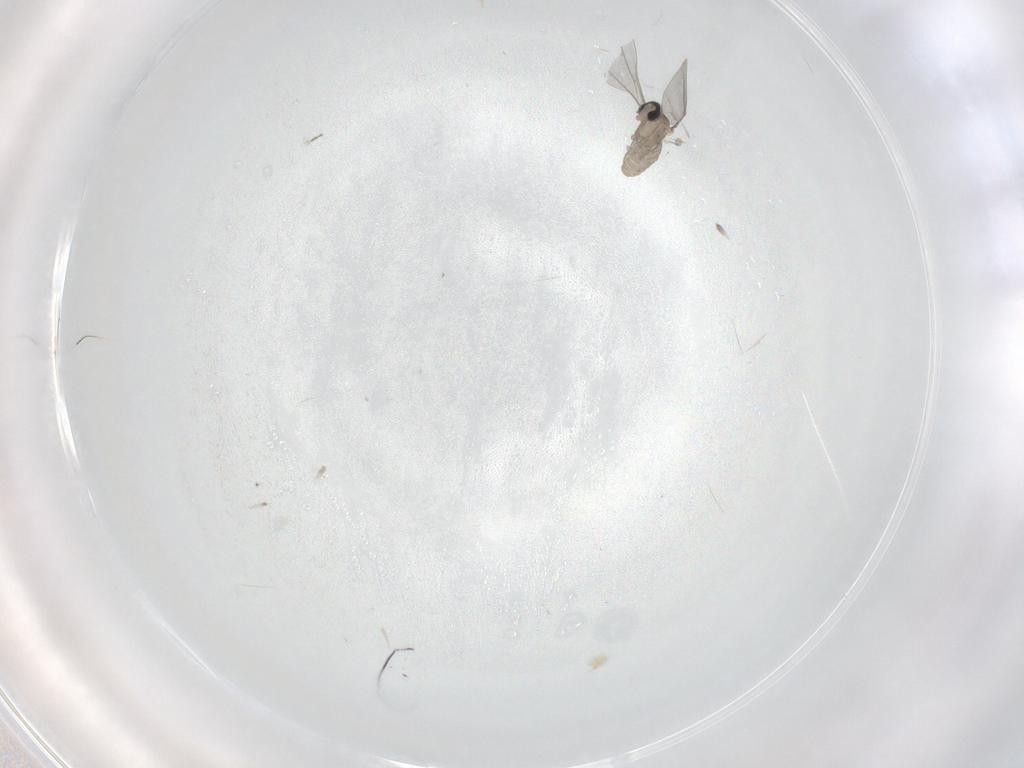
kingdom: Animalia
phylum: Arthropoda
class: Insecta
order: Diptera
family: Cecidomyiidae
